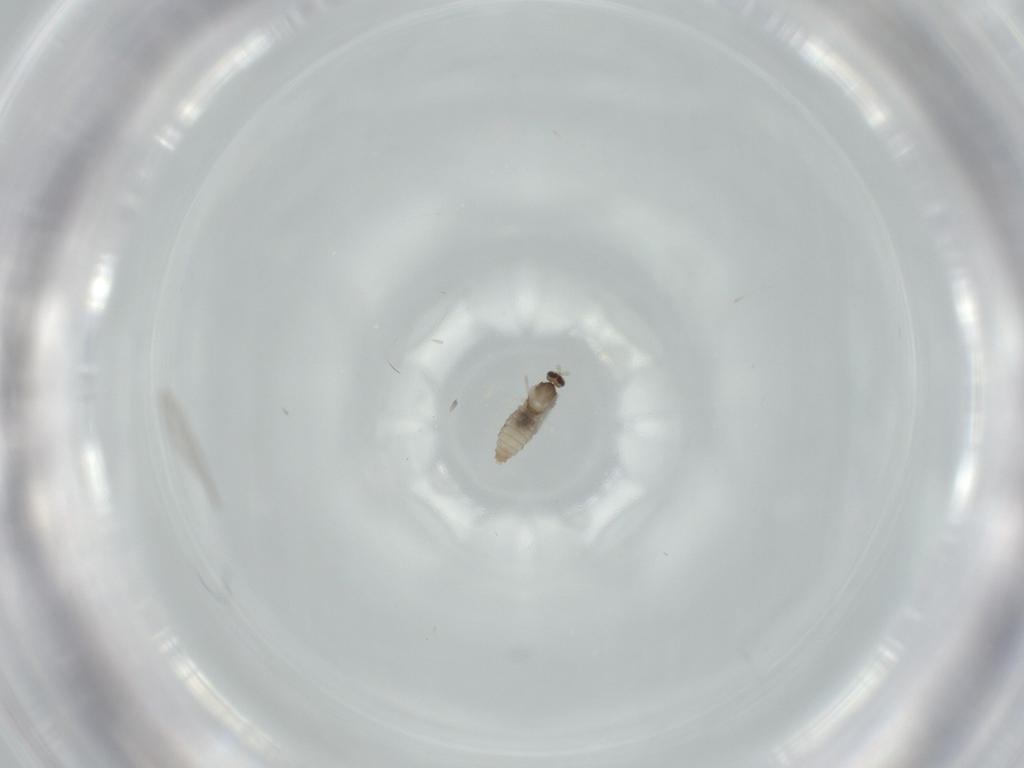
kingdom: Animalia
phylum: Arthropoda
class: Insecta
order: Diptera
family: Cecidomyiidae
